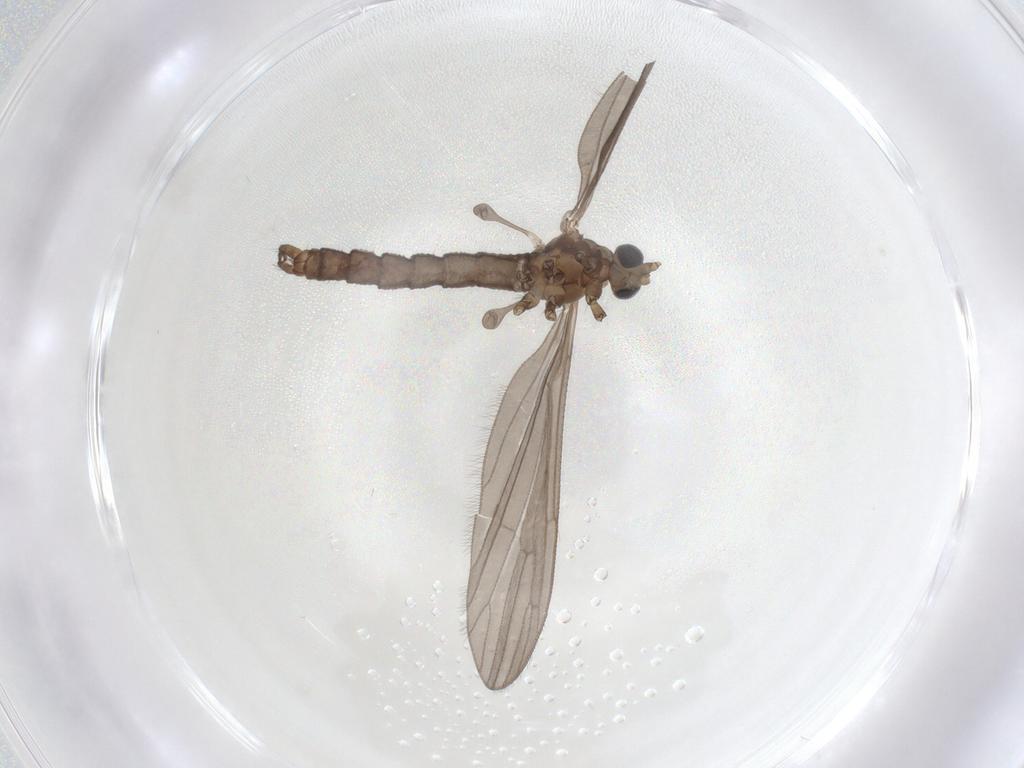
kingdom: Animalia
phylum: Arthropoda
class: Insecta
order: Diptera
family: Limoniidae
